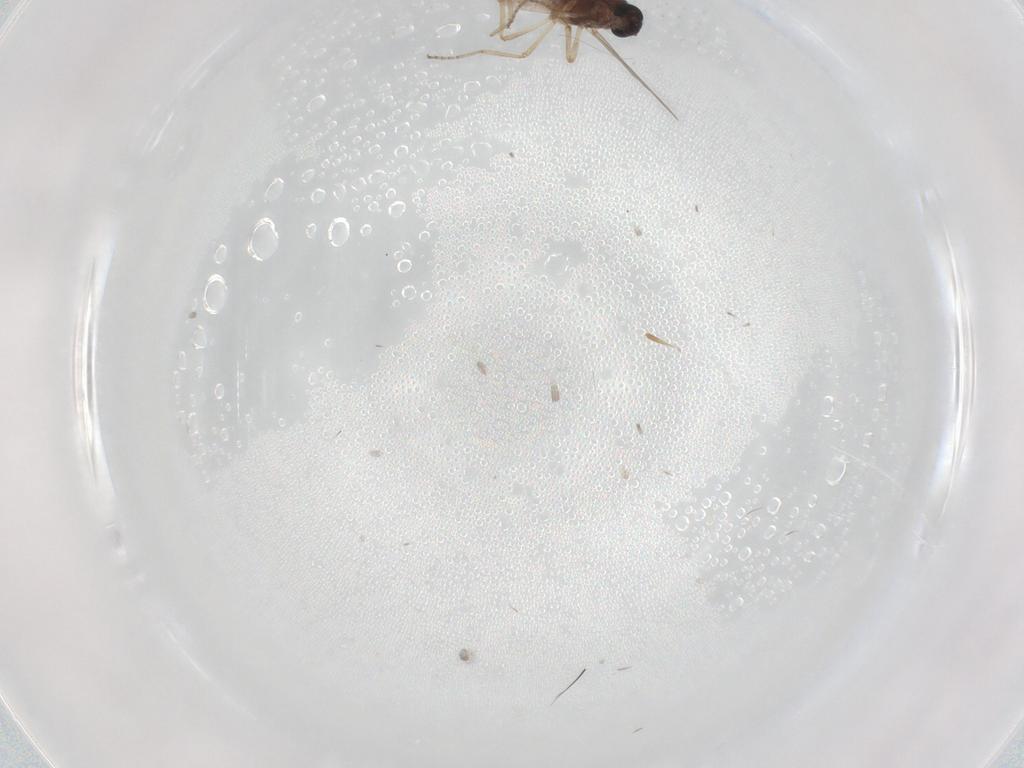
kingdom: Animalia
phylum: Arthropoda
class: Insecta
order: Diptera
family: Ceratopogonidae
